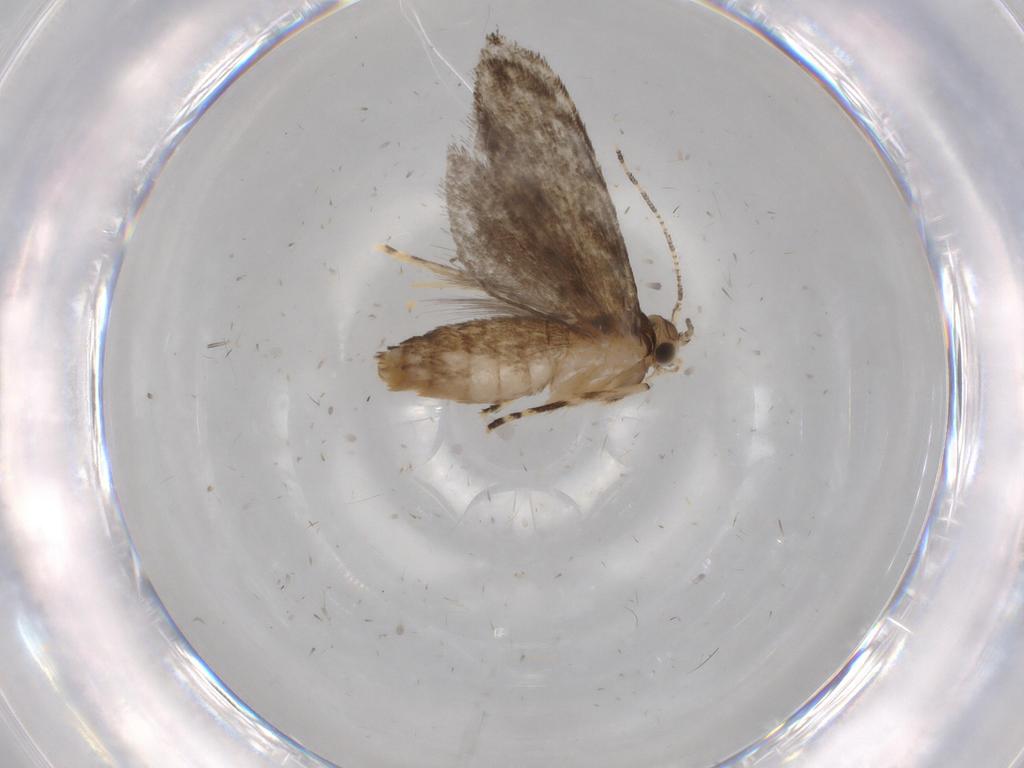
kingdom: Animalia
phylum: Arthropoda
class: Insecta
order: Lepidoptera
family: Tineidae
